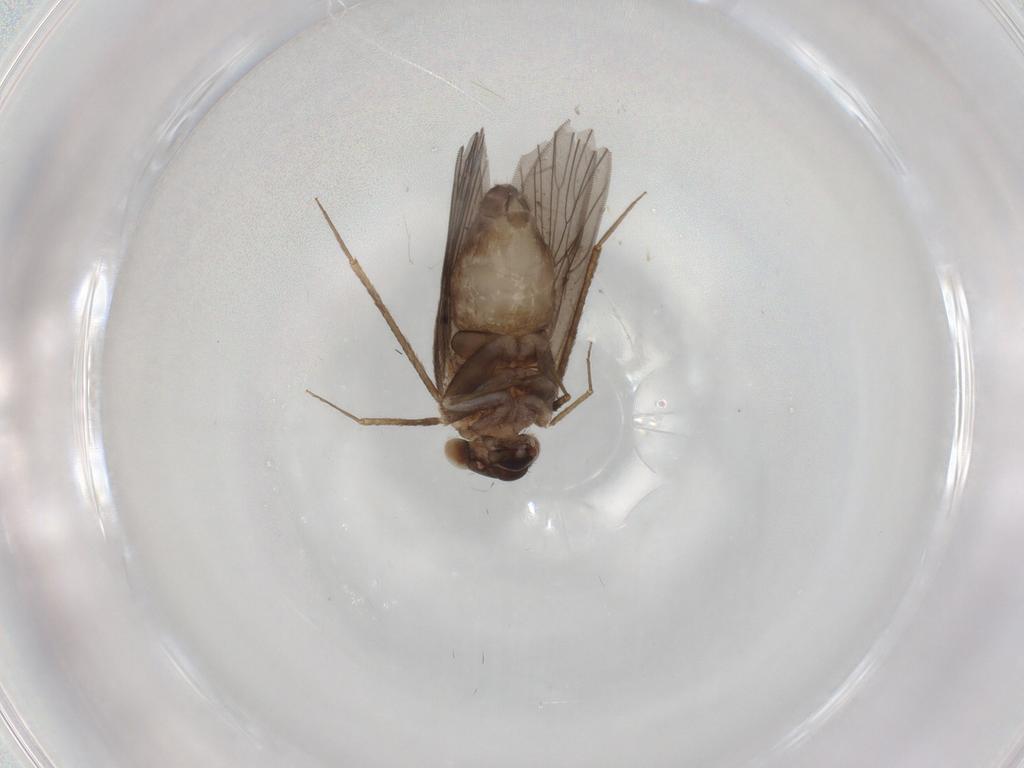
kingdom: Animalia
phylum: Arthropoda
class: Insecta
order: Psocodea
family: Lepidopsocidae
